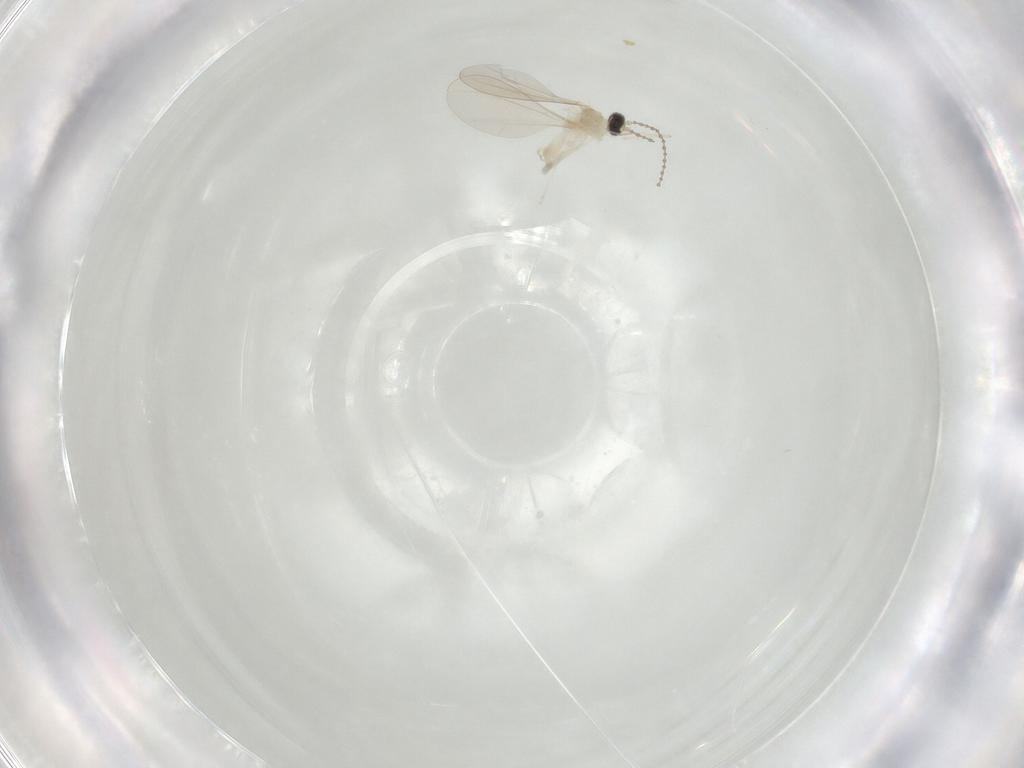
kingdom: Animalia
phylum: Arthropoda
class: Insecta
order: Diptera
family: Cecidomyiidae
